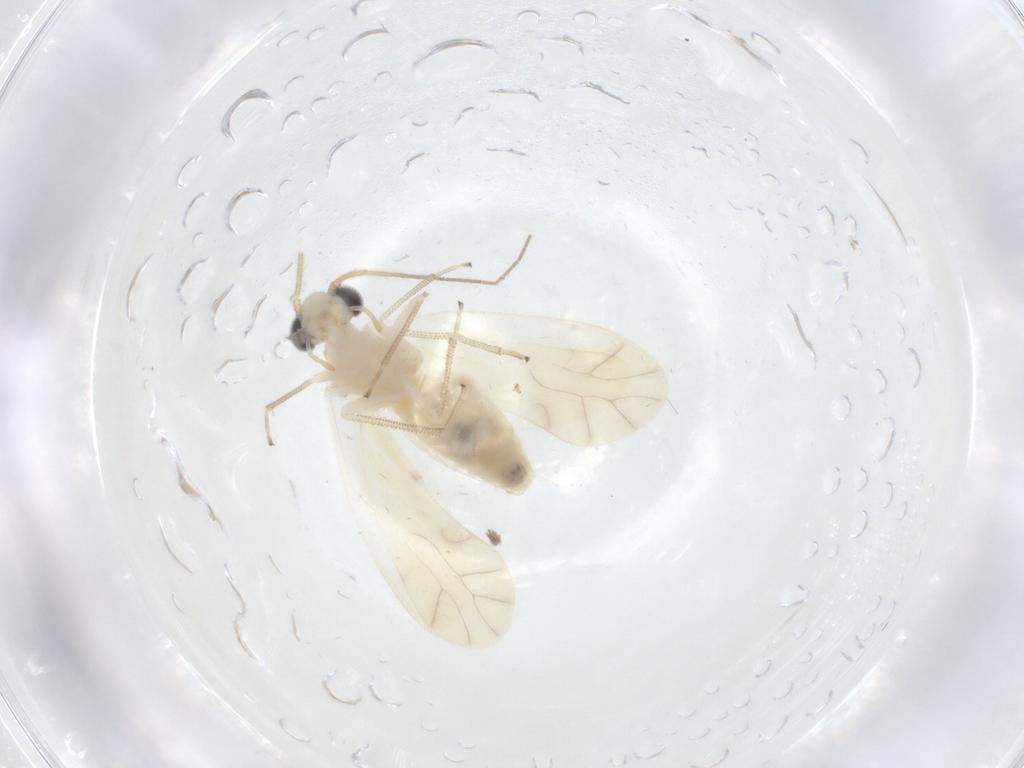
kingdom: Animalia
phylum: Arthropoda
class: Insecta
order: Psocodea
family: Caeciliusidae
